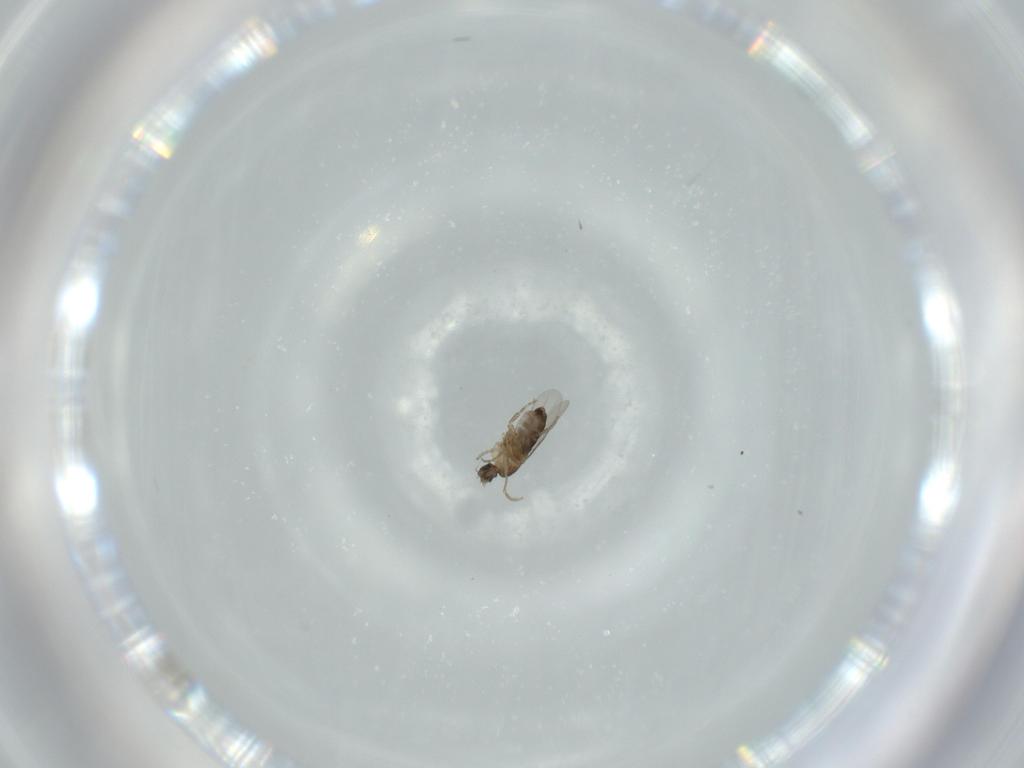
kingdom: Animalia
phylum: Arthropoda
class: Insecta
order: Diptera
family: Phoridae
